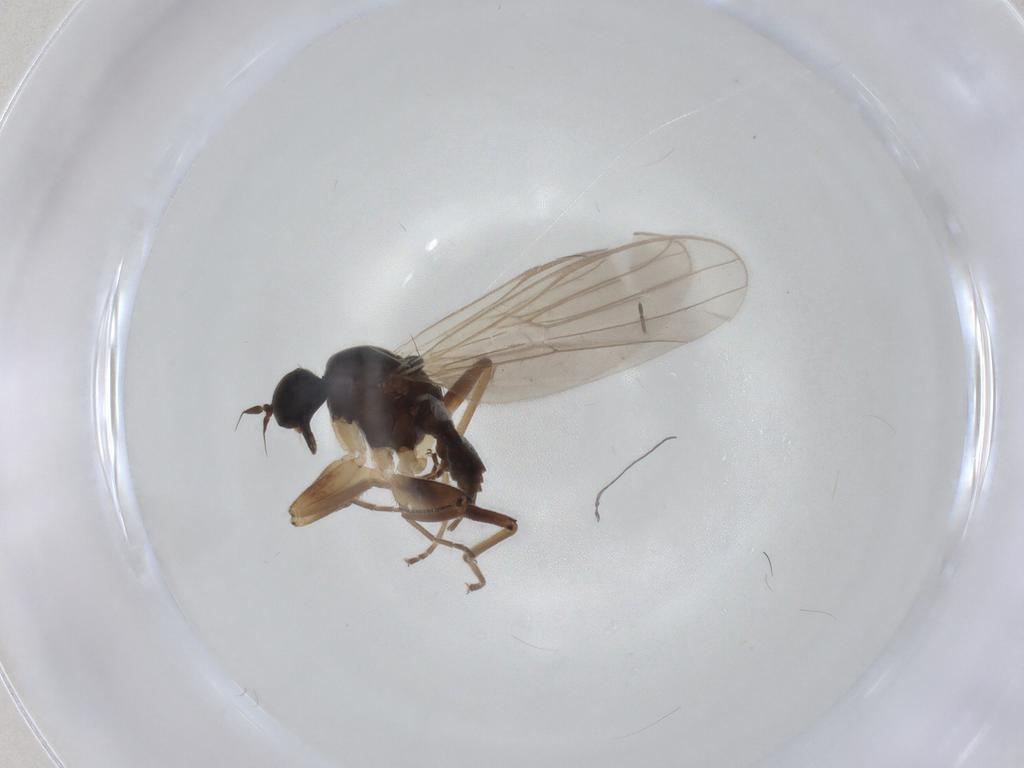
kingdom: Animalia
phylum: Arthropoda
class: Insecta
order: Diptera
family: Hybotidae
